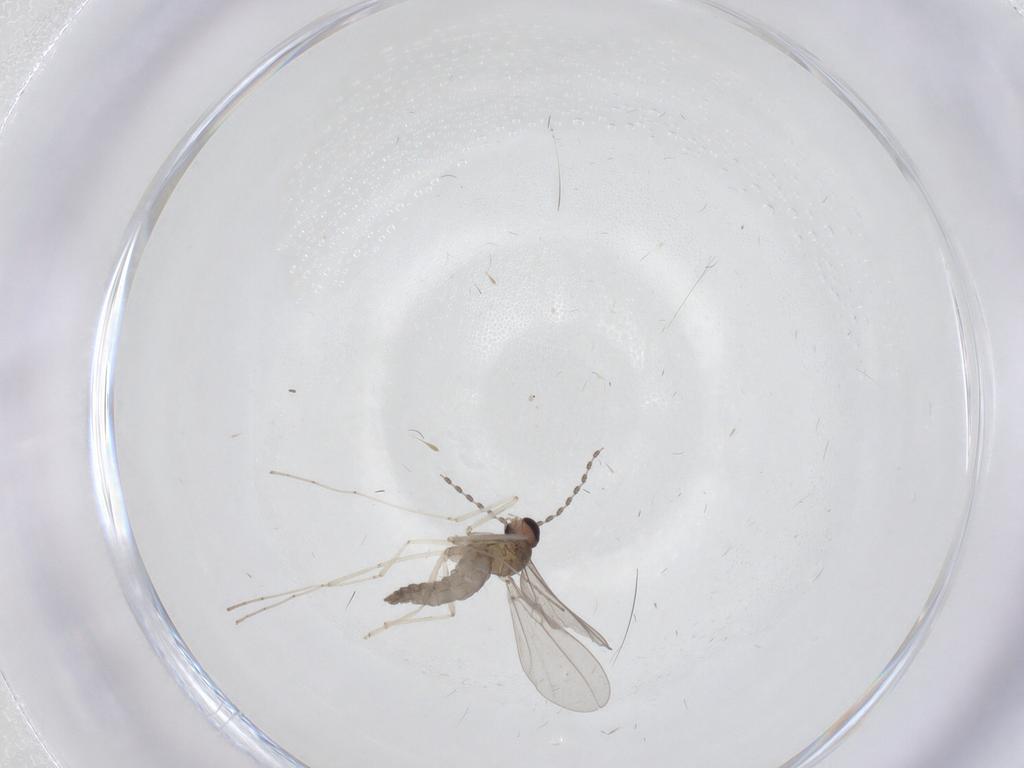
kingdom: Animalia
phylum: Arthropoda
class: Insecta
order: Diptera
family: Cecidomyiidae
